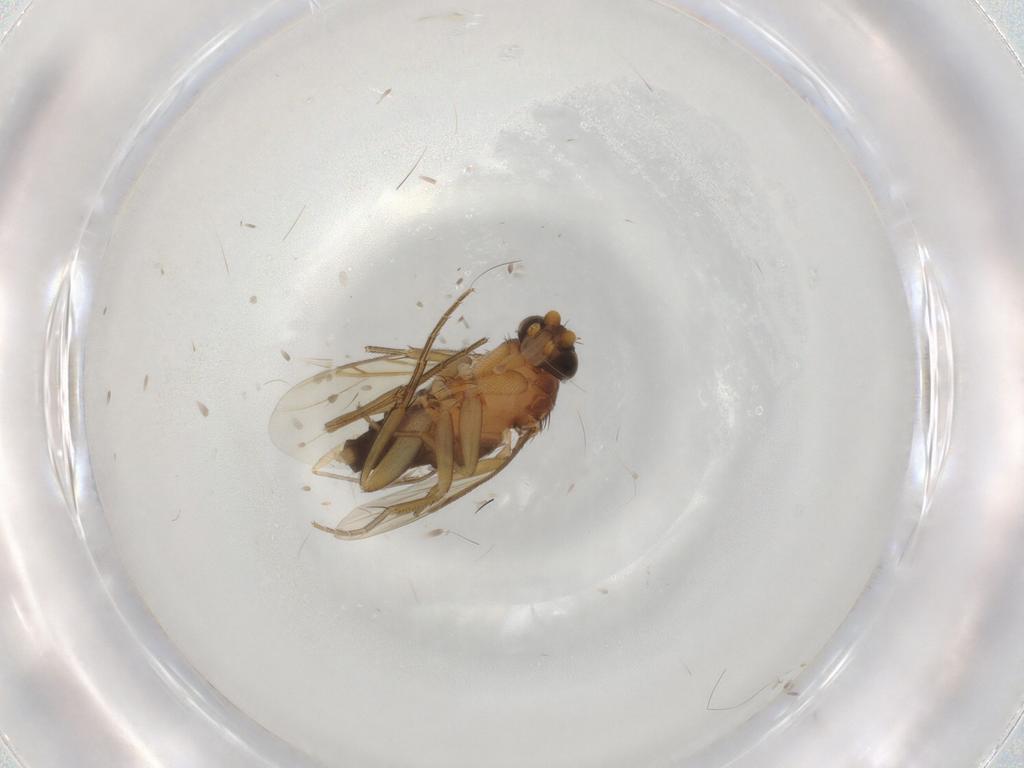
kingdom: Animalia
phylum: Arthropoda
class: Insecta
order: Diptera
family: Phoridae
